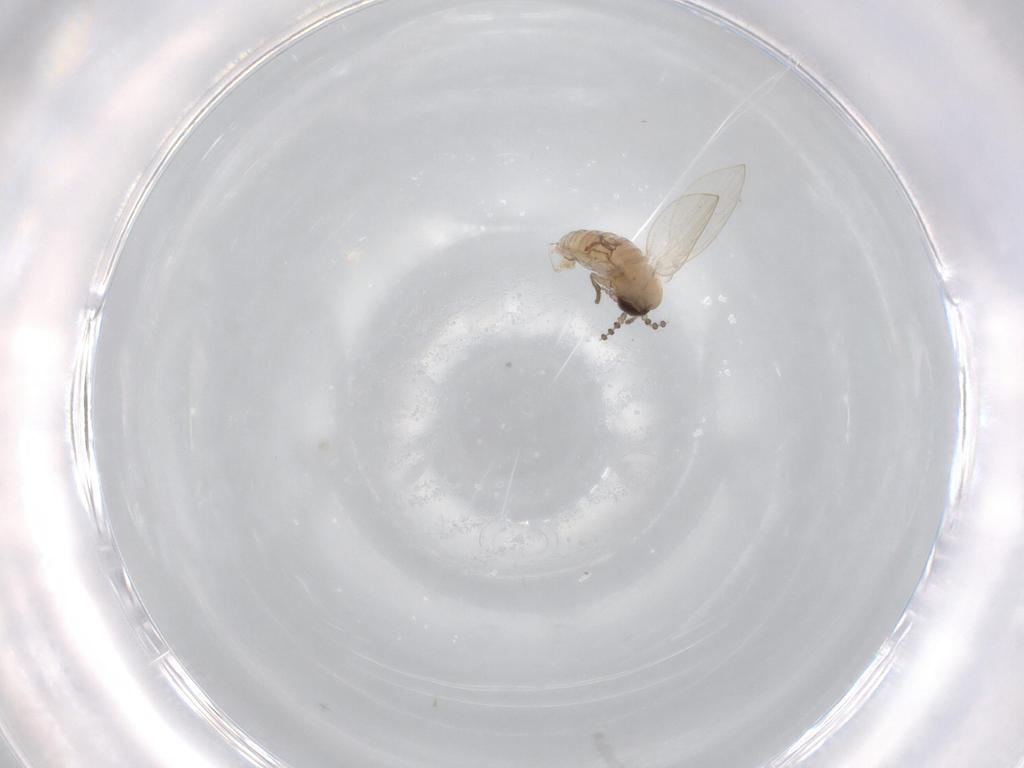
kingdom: Animalia
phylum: Arthropoda
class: Insecta
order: Diptera
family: Psychodidae
